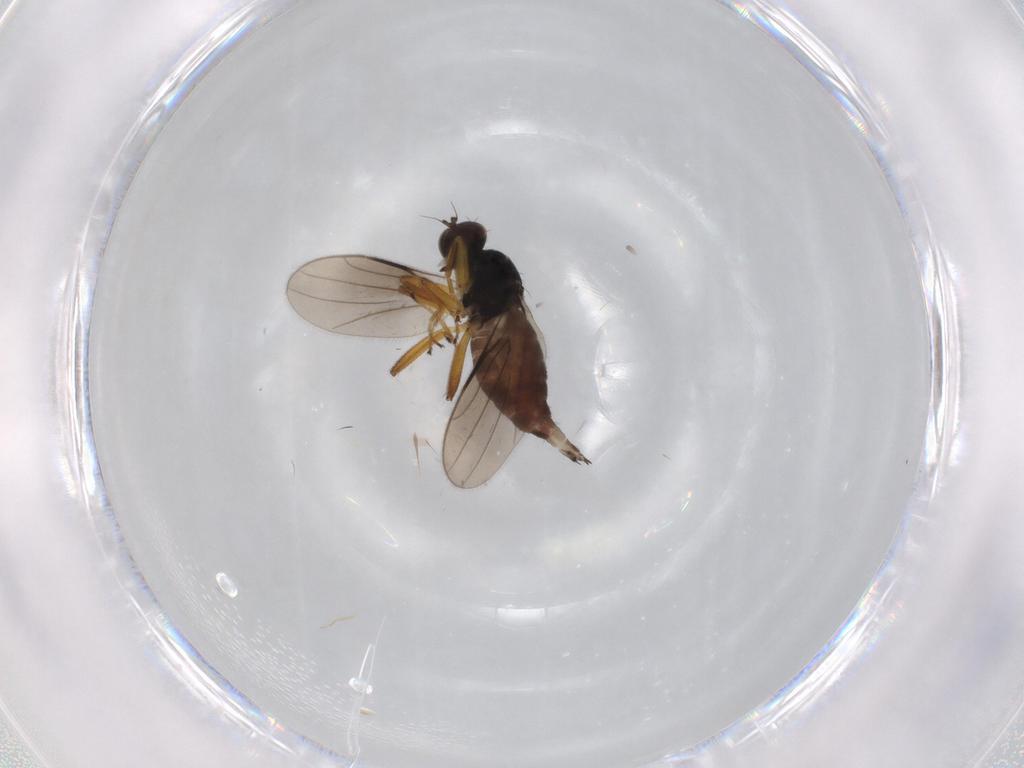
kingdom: Animalia
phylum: Arthropoda
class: Insecta
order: Diptera
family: Hybotidae
